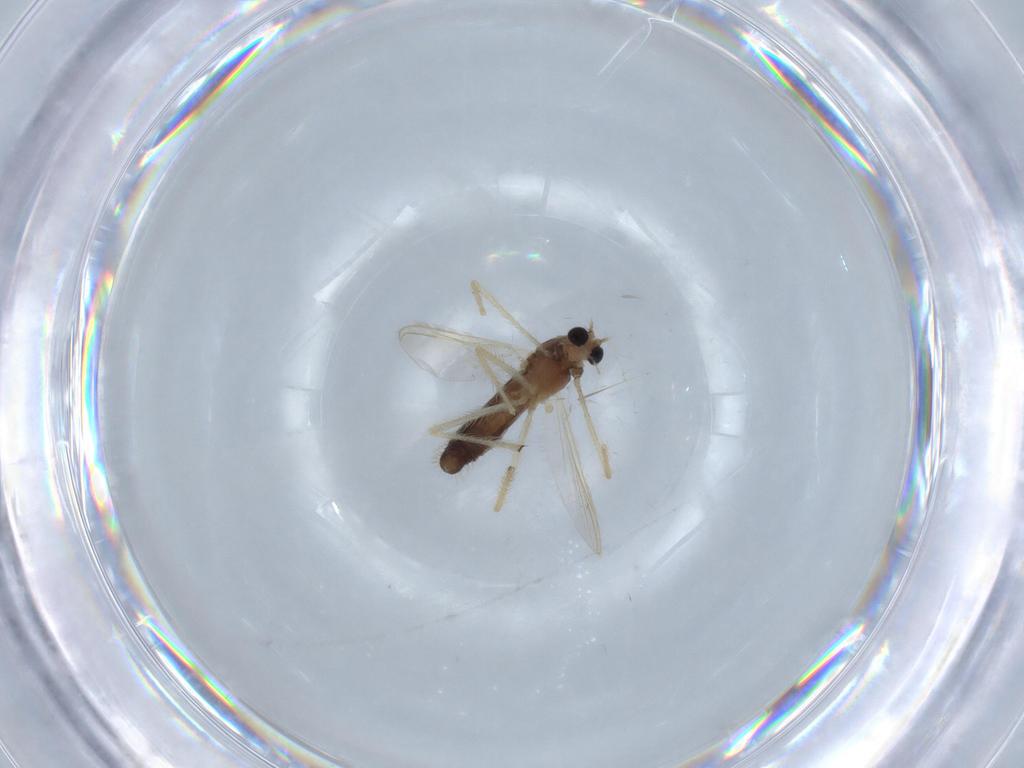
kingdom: Animalia
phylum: Arthropoda
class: Insecta
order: Diptera
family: Chironomidae
